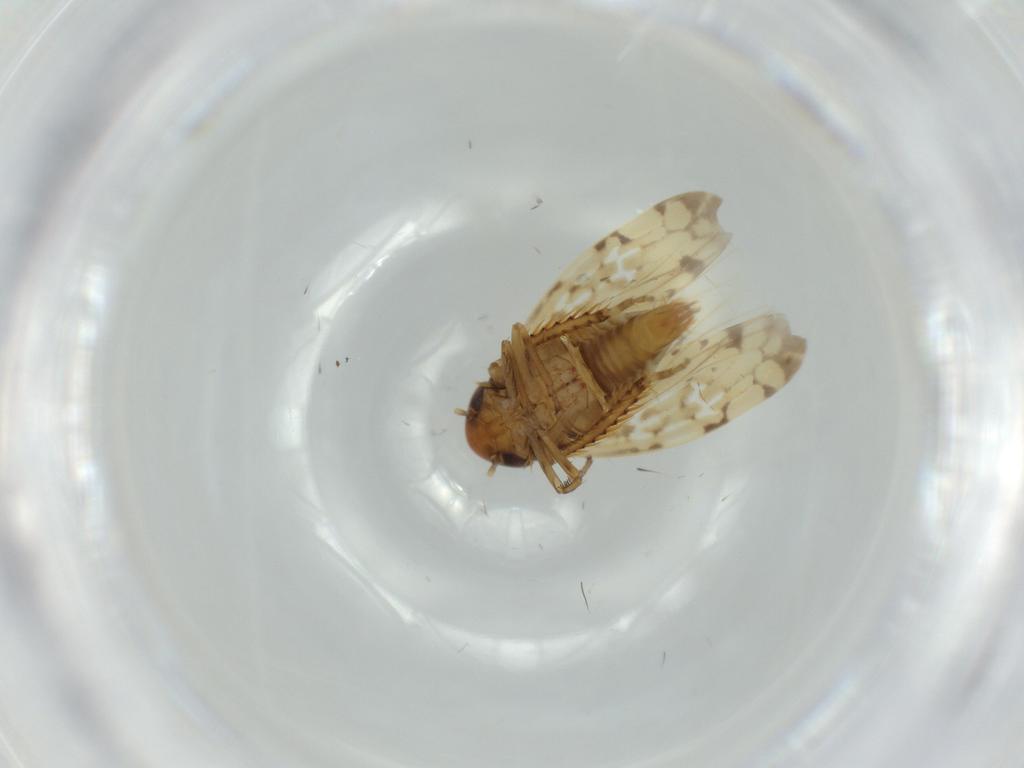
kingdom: Animalia
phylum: Arthropoda
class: Insecta
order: Hemiptera
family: Cicadellidae
